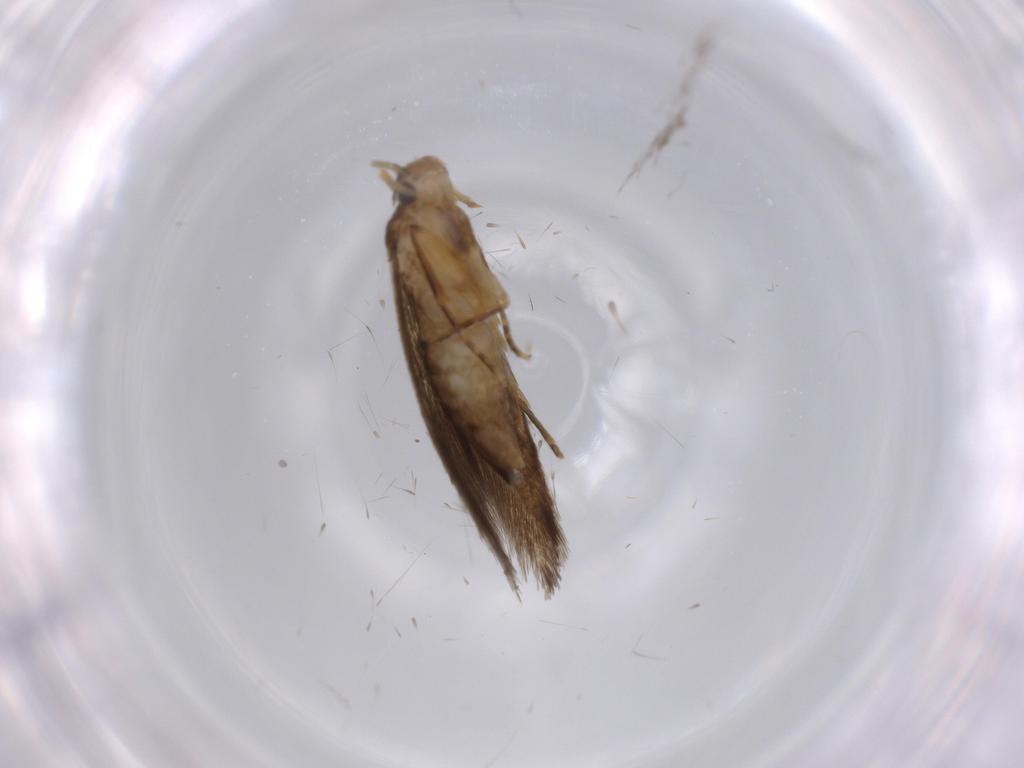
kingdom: Animalia
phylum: Arthropoda
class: Insecta
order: Lepidoptera
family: Tineidae
